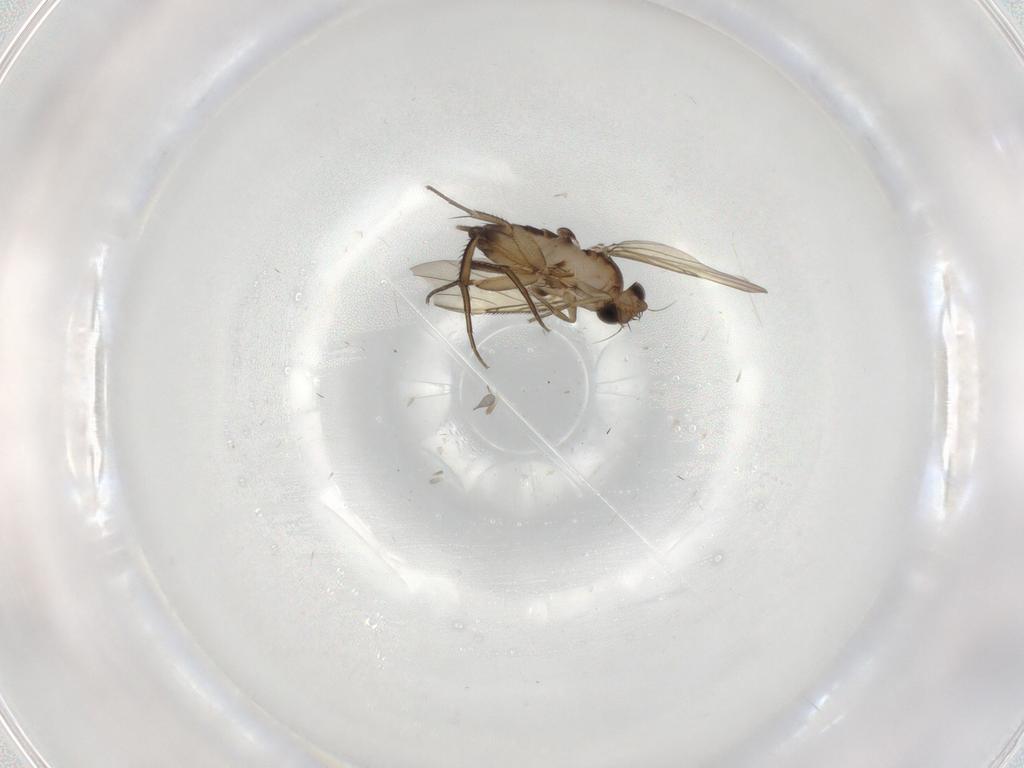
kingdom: Animalia
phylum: Arthropoda
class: Insecta
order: Diptera
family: Phoridae
